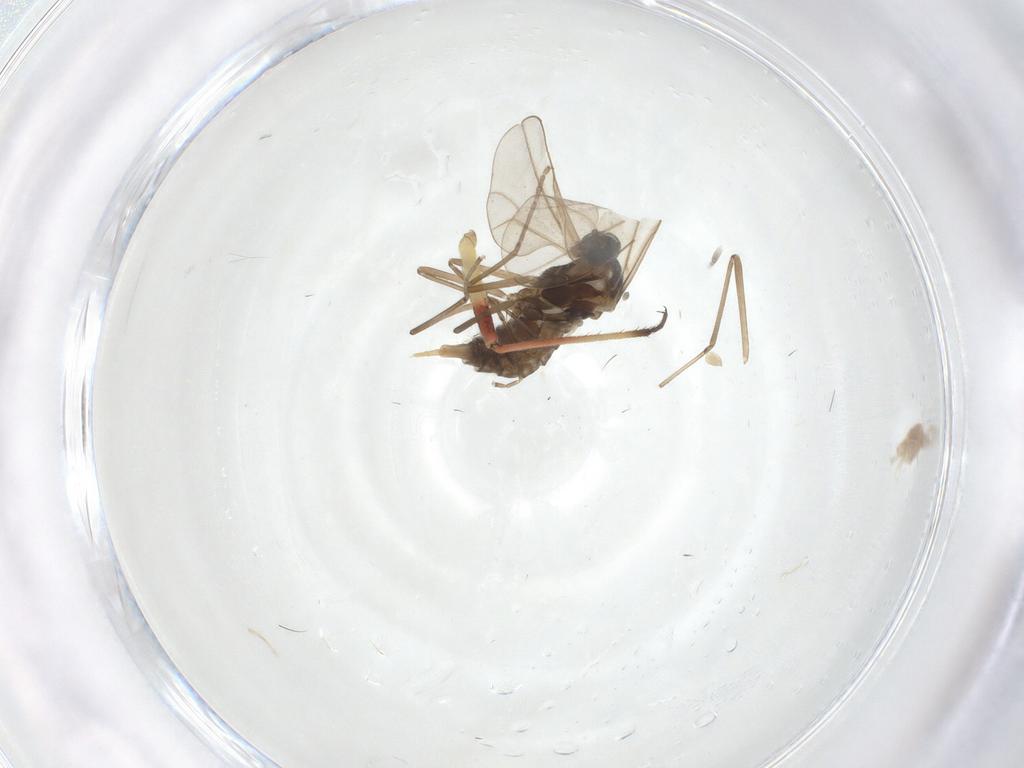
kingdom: Animalia
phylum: Arthropoda
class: Insecta
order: Diptera
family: Cecidomyiidae
